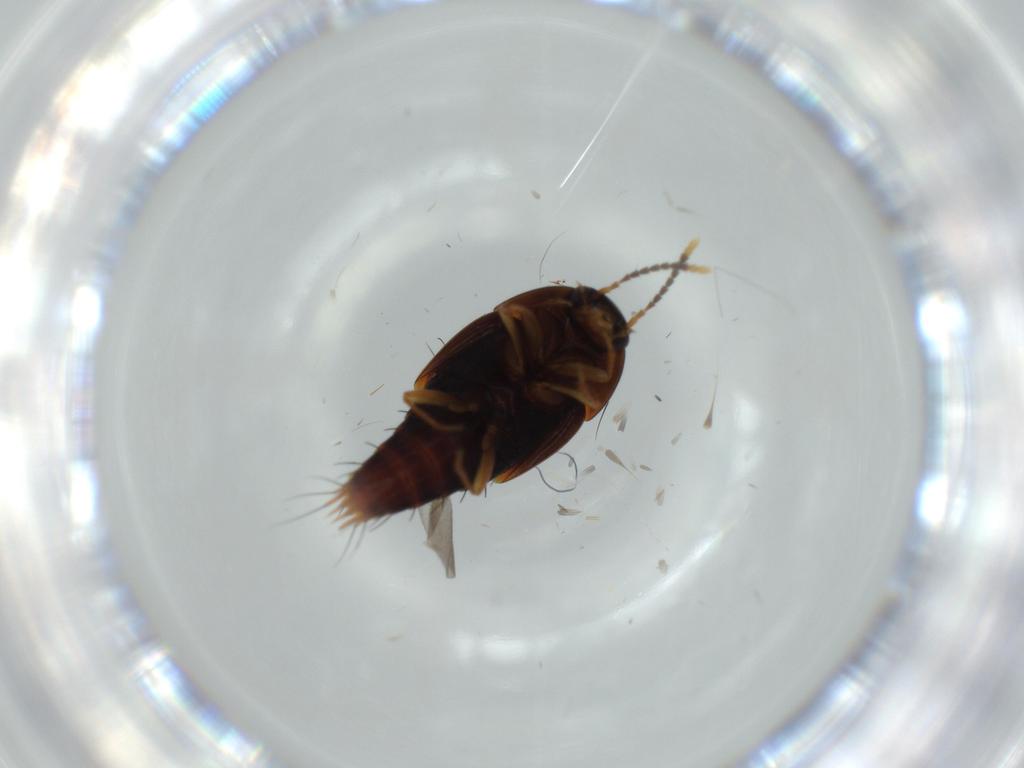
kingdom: Animalia
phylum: Arthropoda
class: Insecta
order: Coleoptera
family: Staphylinidae
